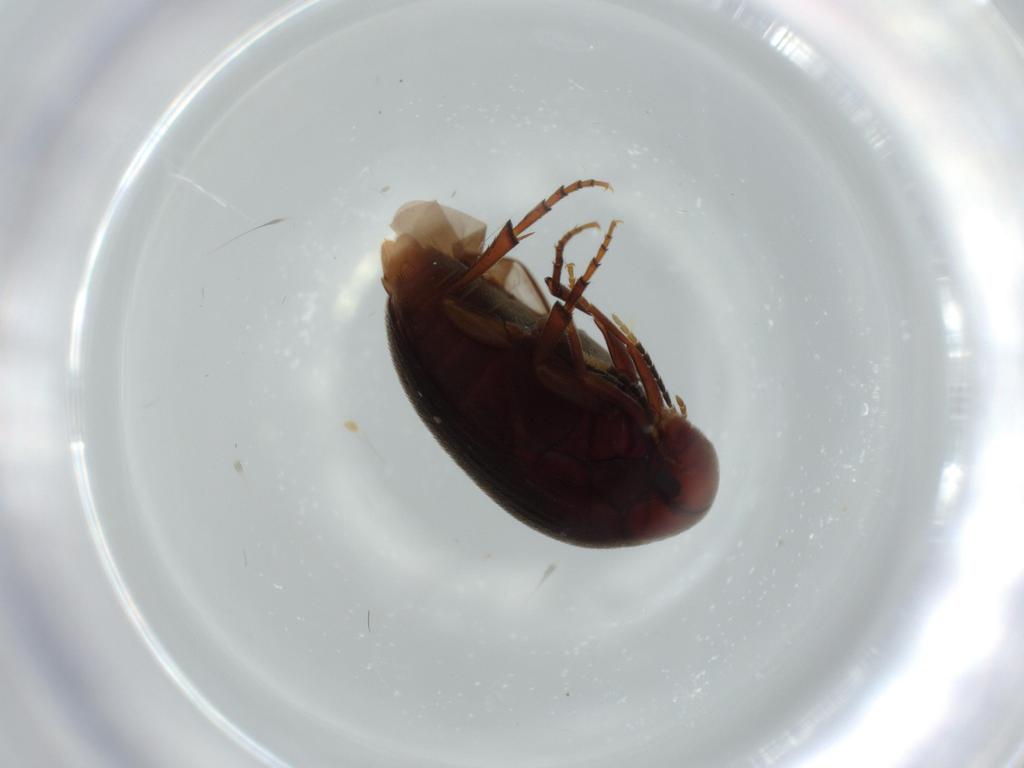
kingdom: Animalia
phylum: Arthropoda
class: Insecta
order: Coleoptera
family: Eucinetidae
